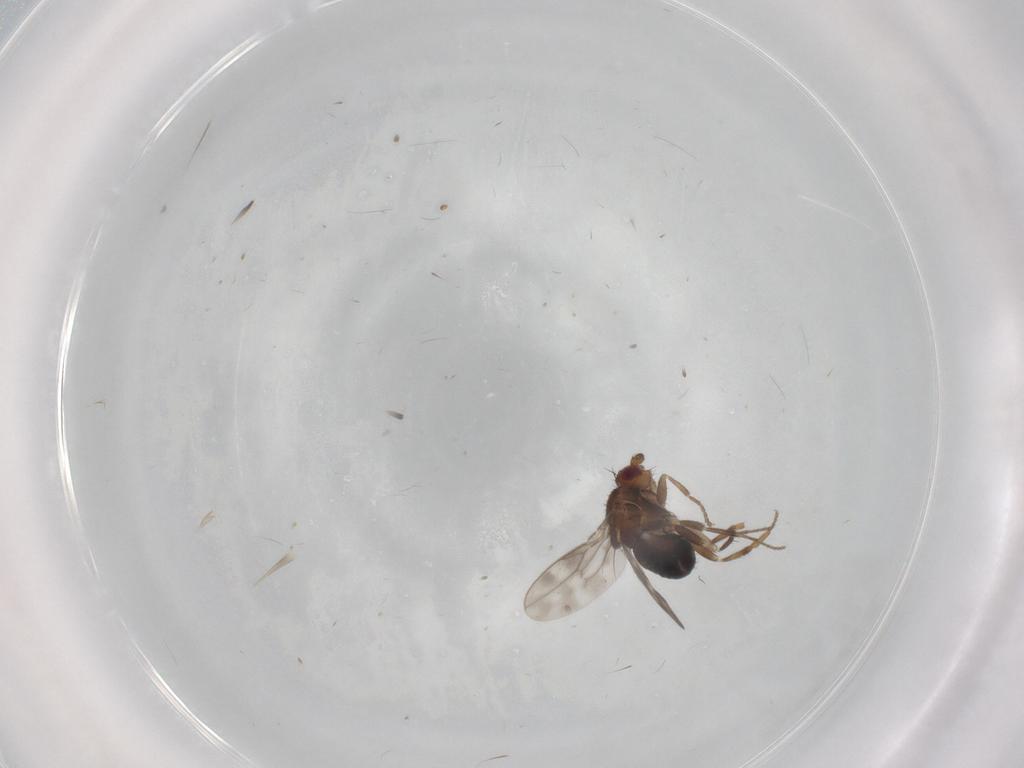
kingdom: Animalia
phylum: Arthropoda
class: Insecta
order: Diptera
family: Sphaeroceridae
